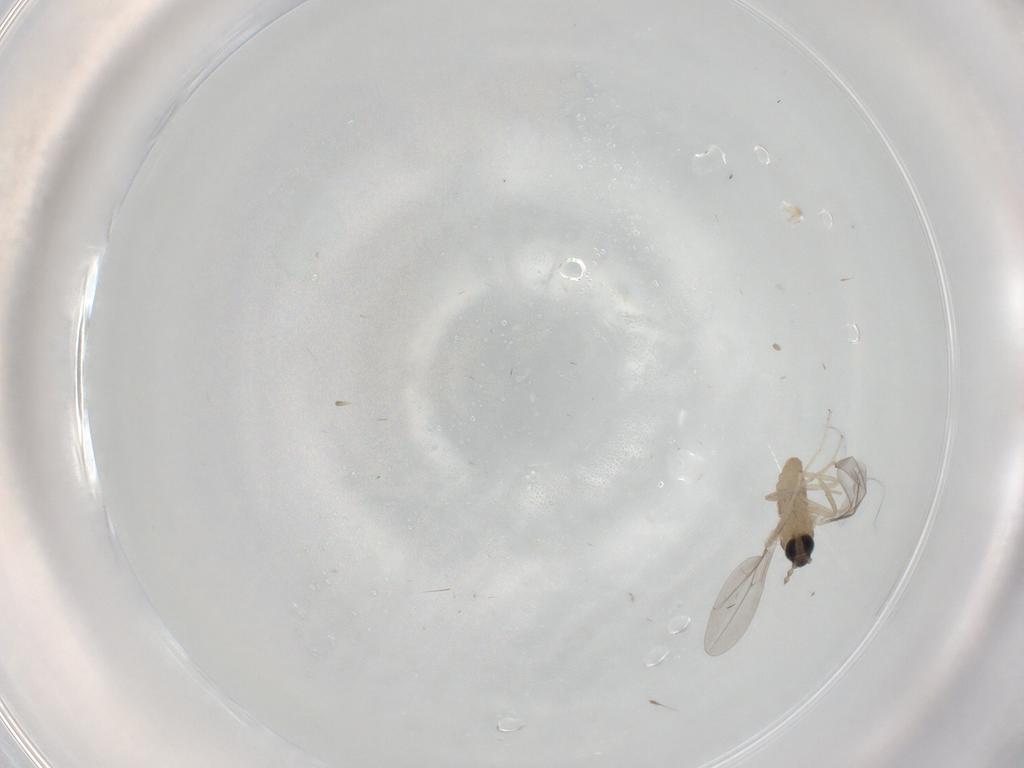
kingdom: Animalia
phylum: Arthropoda
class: Insecta
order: Diptera
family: Cecidomyiidae
